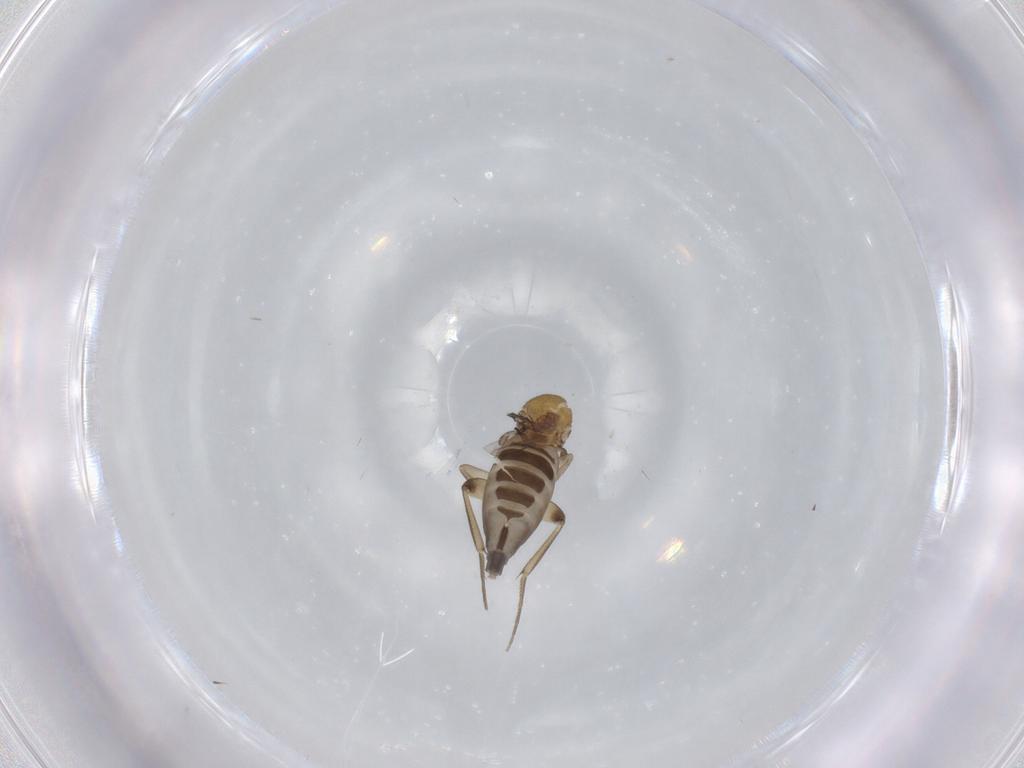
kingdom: Animalia
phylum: Arthropoda
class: Insecta
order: Diptera
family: Phoridae
